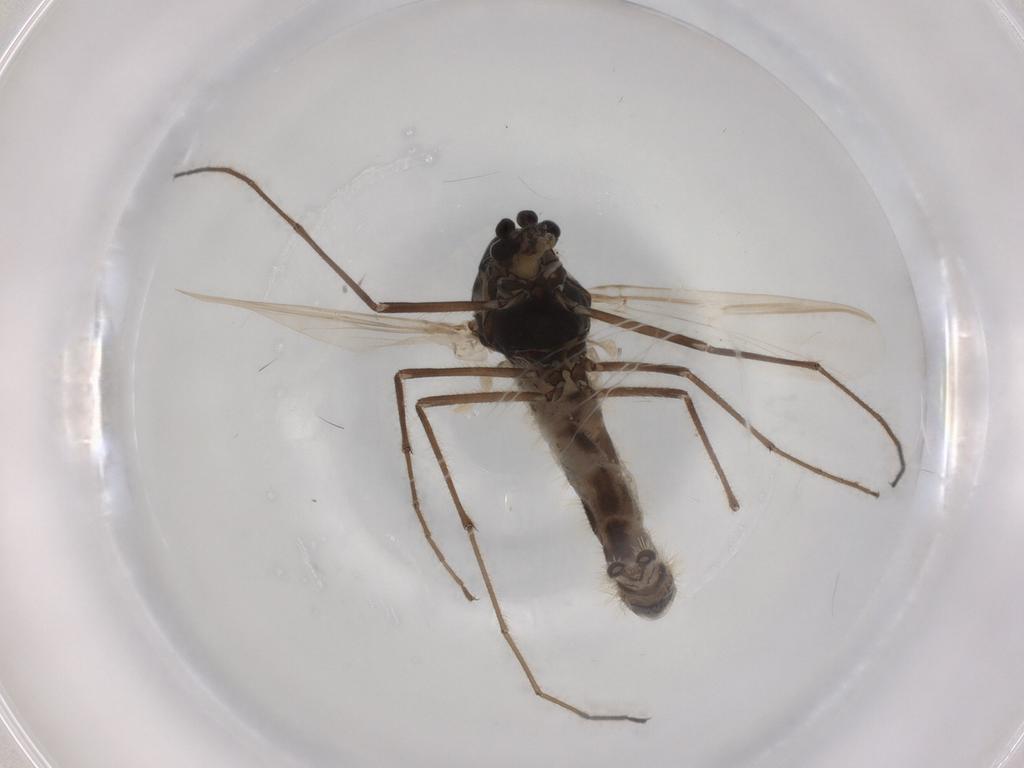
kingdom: Animalia
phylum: Arthropoda
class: Insecta
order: Diptera
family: Chironomidae
